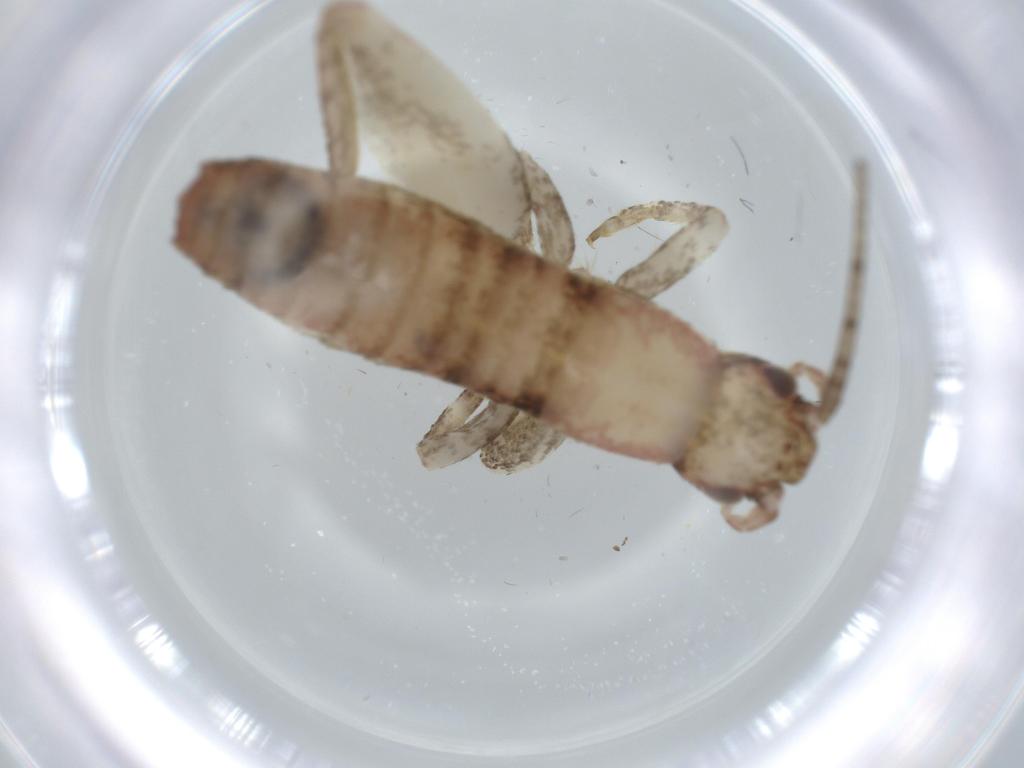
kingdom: Animalia
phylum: Arthropoda
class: Insecta
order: Orthoptera
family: Mogoplistidae
